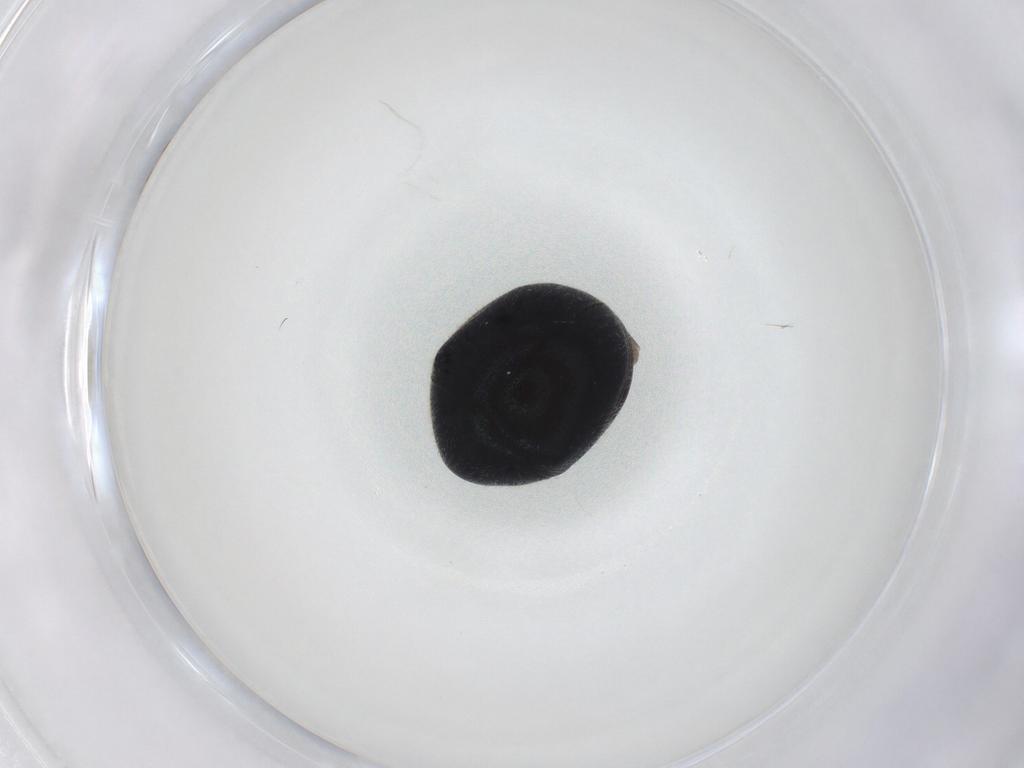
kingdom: Animalia
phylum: Arthropoda
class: Insecta
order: Coleoptera
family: Ptinidae
